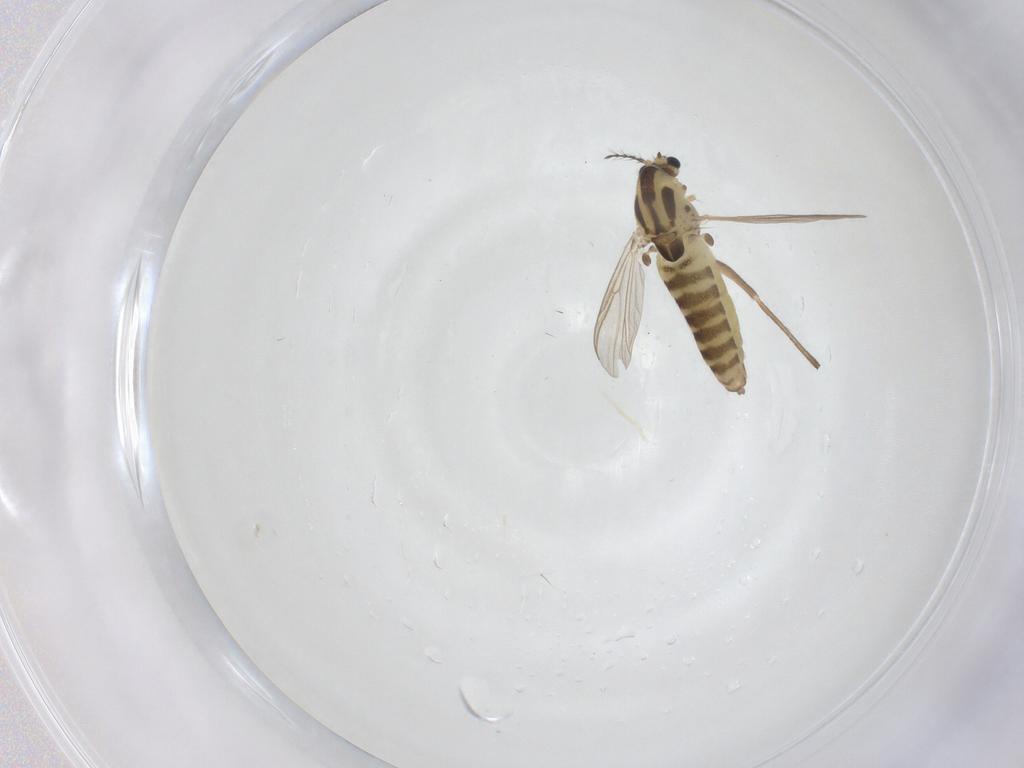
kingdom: Animalia
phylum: Arthropoda
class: Insecta
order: Diptera
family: Chironomidae
